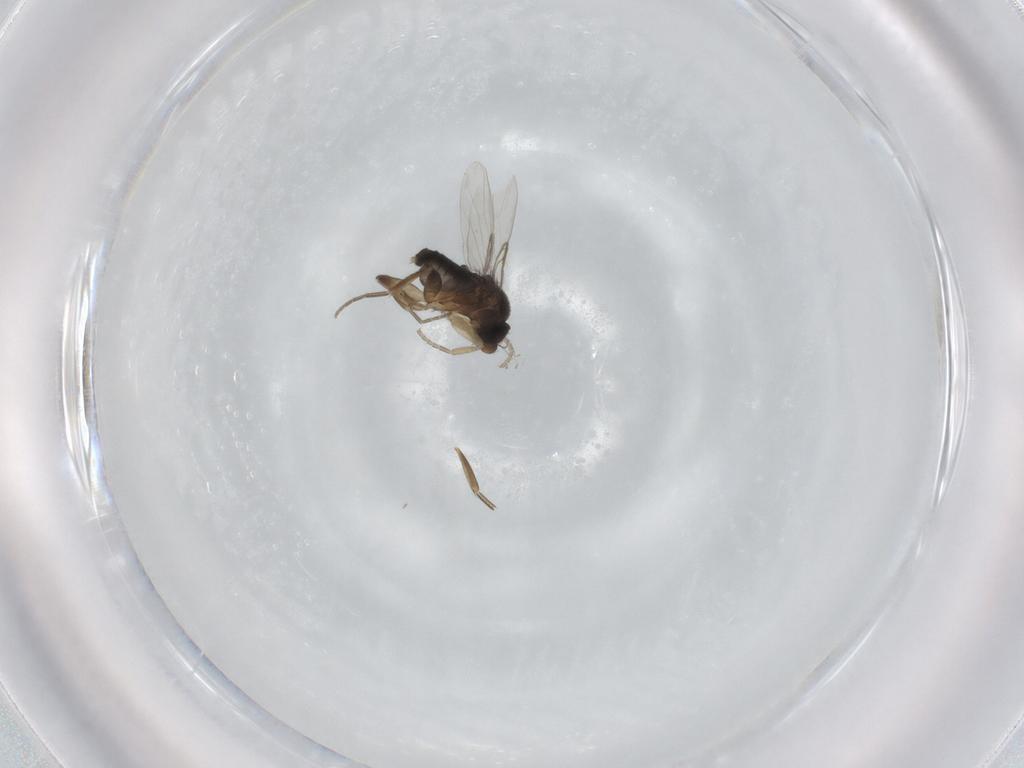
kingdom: Animalia
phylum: Arthropoda
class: Insecta
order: Diptera
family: Phoridae
